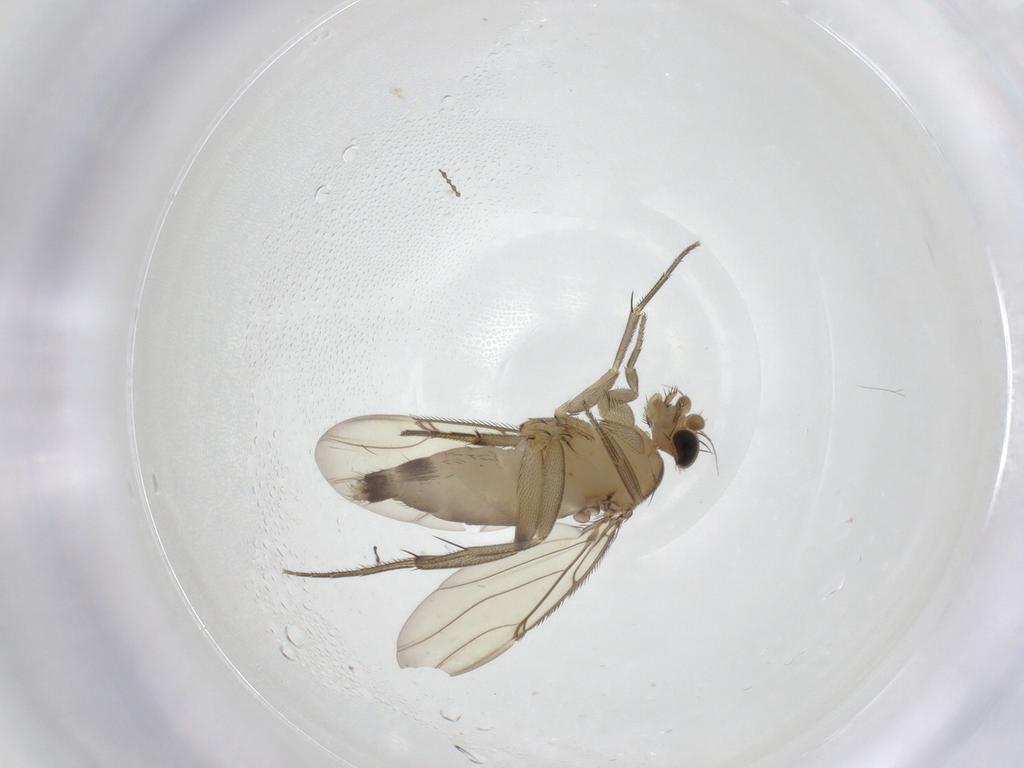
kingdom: Animalia
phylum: Arthropoda
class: Insecta
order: Diptera
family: Phoridae
